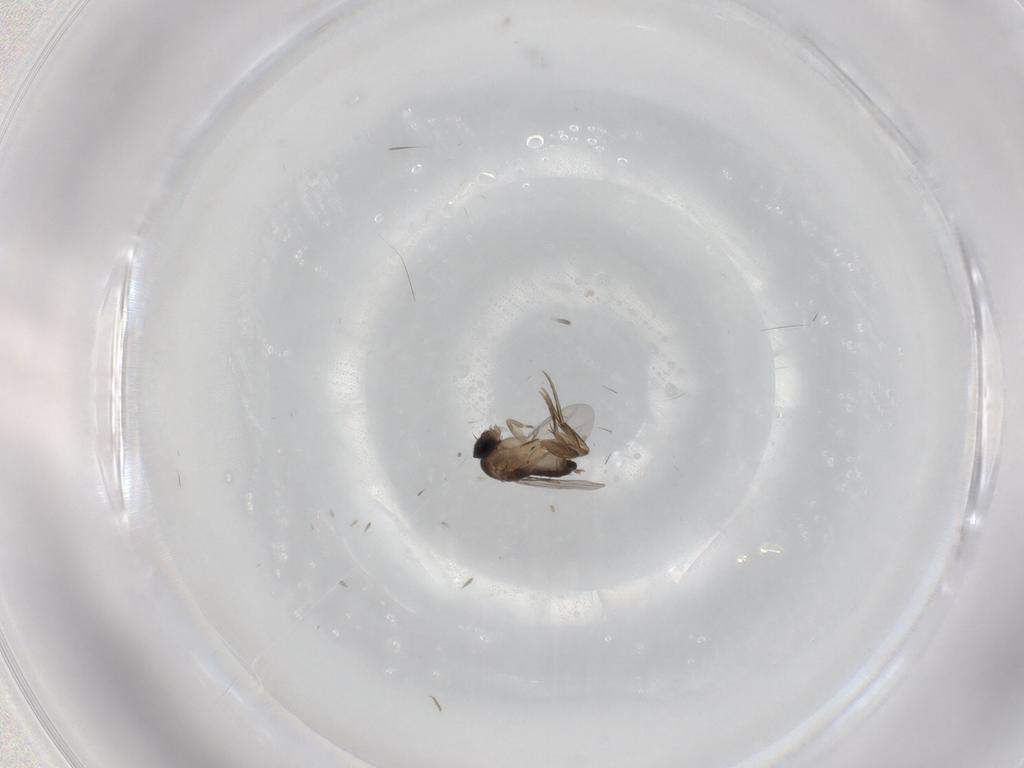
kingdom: Animalia
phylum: Arthropoda
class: Insecta
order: Diptera
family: Phoridae
